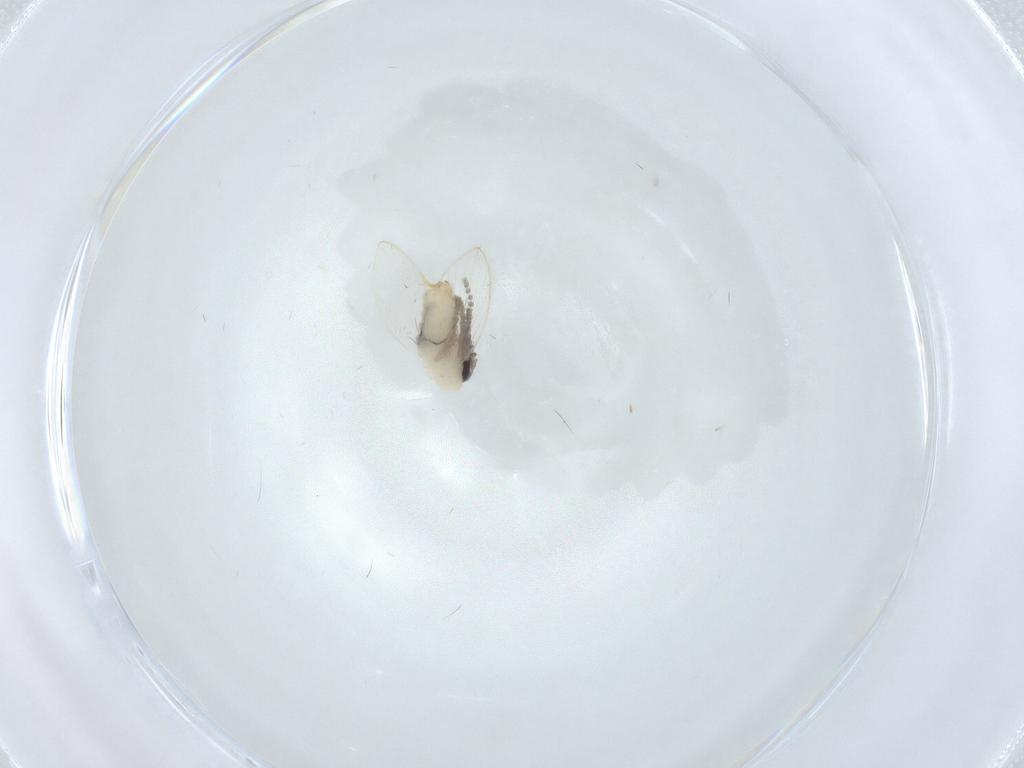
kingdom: Animalia
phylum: Arthropoda
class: Insecta
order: Diptera
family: Psychodidae
